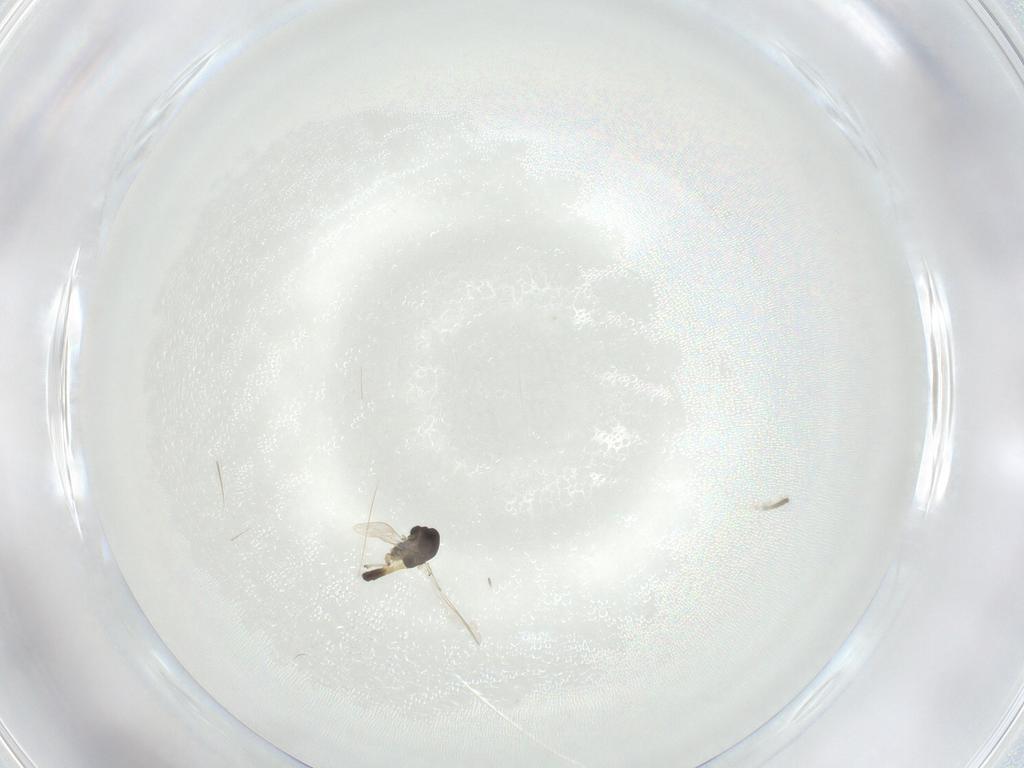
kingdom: Animalia
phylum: Arthropoda
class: Insecta
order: Diptera
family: Chironomidae
